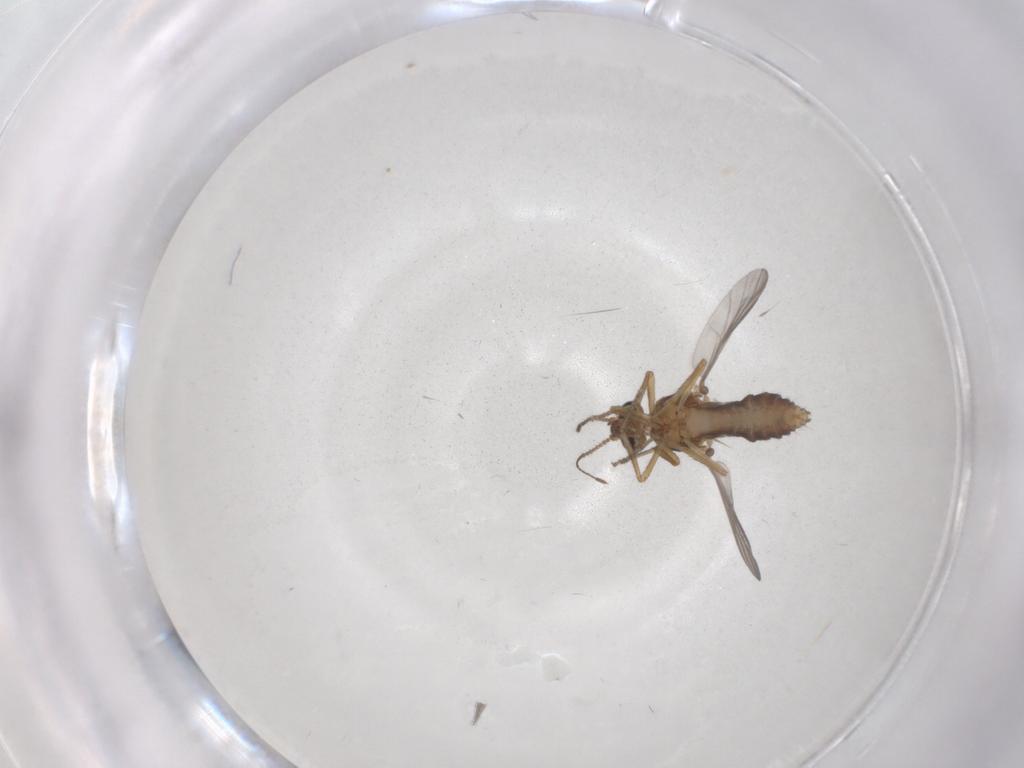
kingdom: Animalia
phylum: Arthropoda
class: Insecta
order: Diptera
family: Ceratopogonidae
